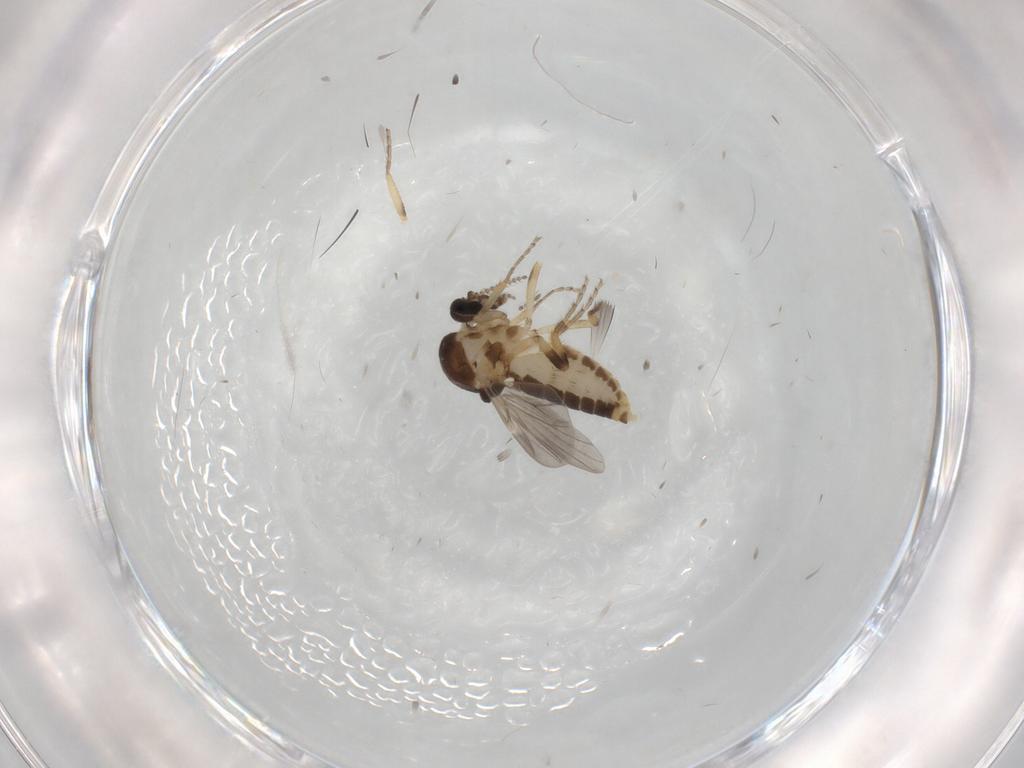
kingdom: Animalia
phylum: Arthropoda
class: Insecta
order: Diptera
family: Ceratopogonidae
